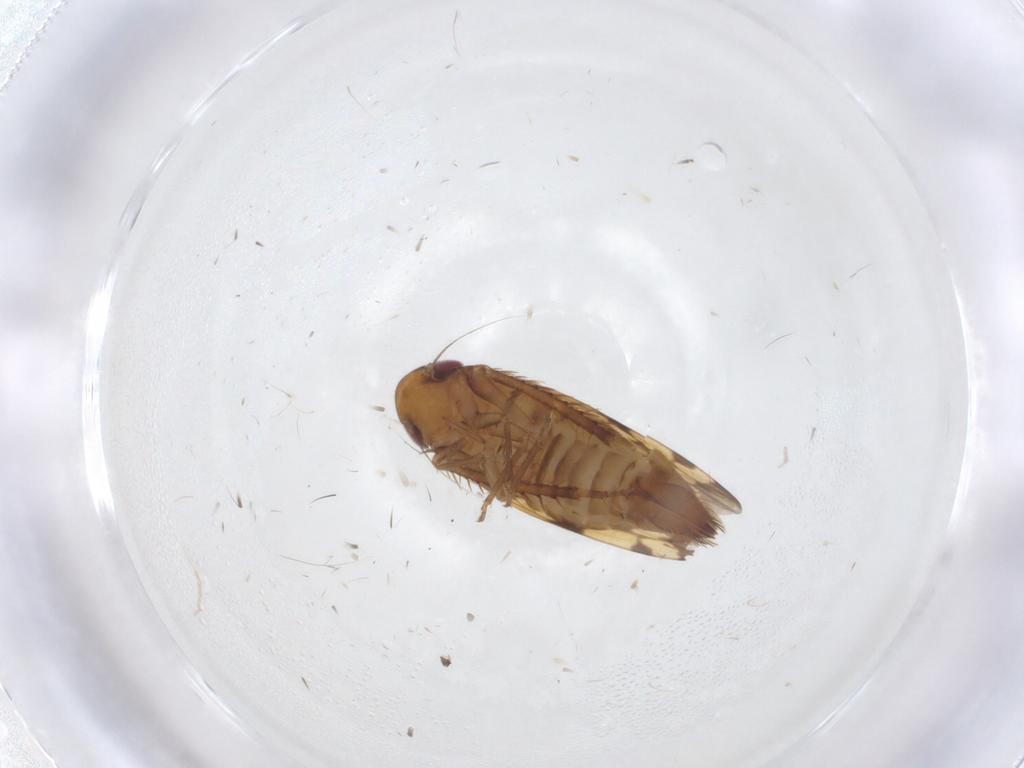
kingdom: Animalia
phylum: Arthropoda
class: Insecta
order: Hemiptera
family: Cicadellidae
